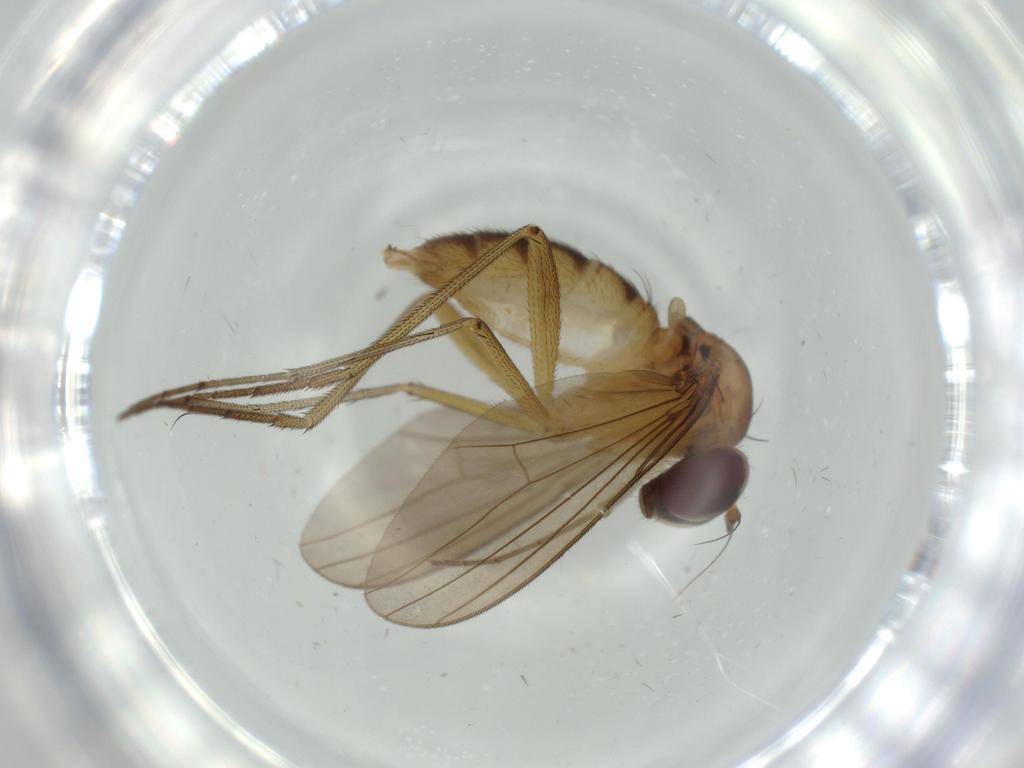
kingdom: Animalia
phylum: Arthropoda
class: Insecta
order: Diptera
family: Dolichopodidae
